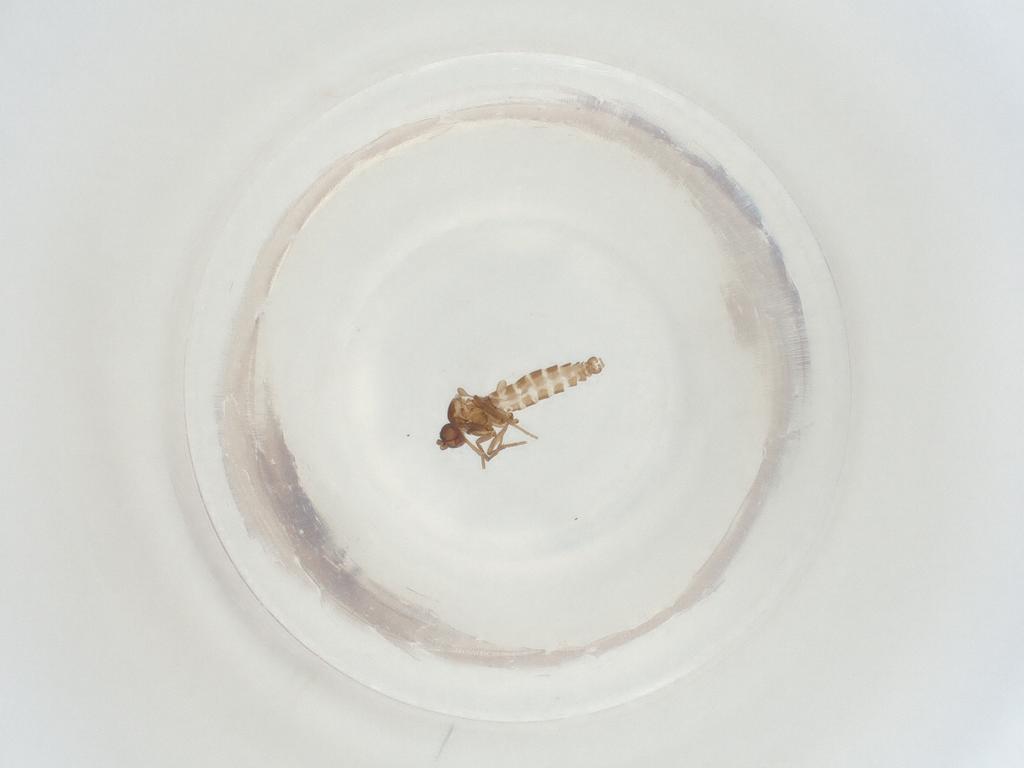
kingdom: Animalia
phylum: Arthropoda
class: Insecta
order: Diptera
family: Sciaridae
